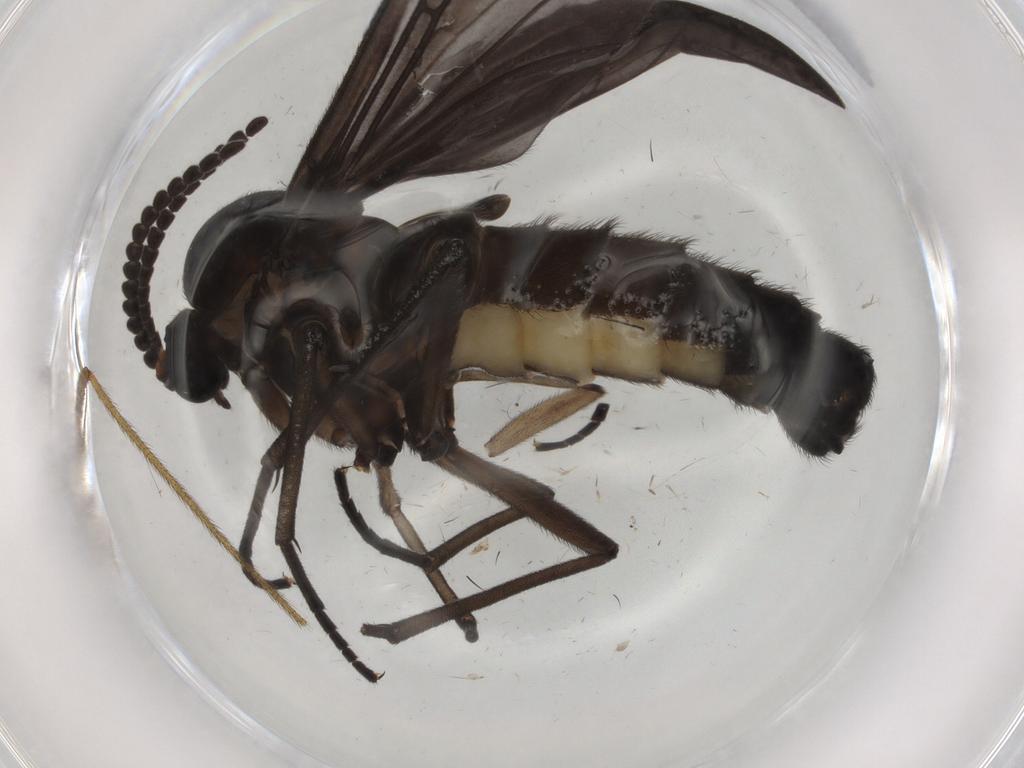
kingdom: Animalia
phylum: Arthropoda
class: Insecta
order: Diptera
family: Sciaridae
